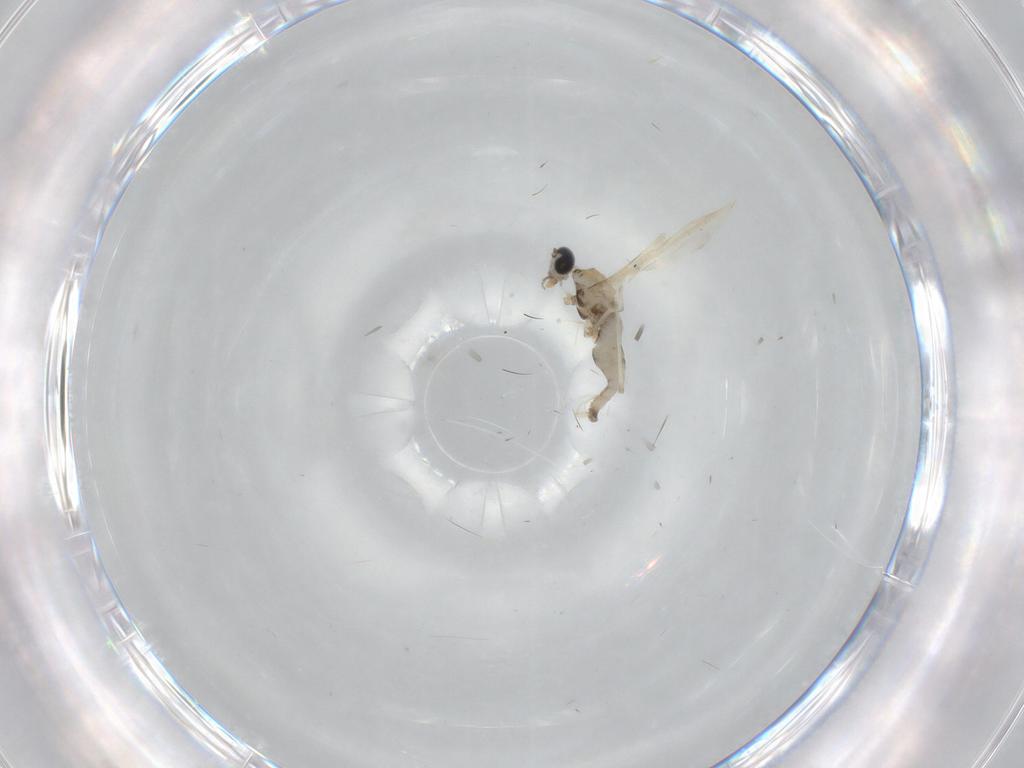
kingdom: Animalia
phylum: Arthropoda
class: Insecta
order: Diptera
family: Cecidomyiidae
